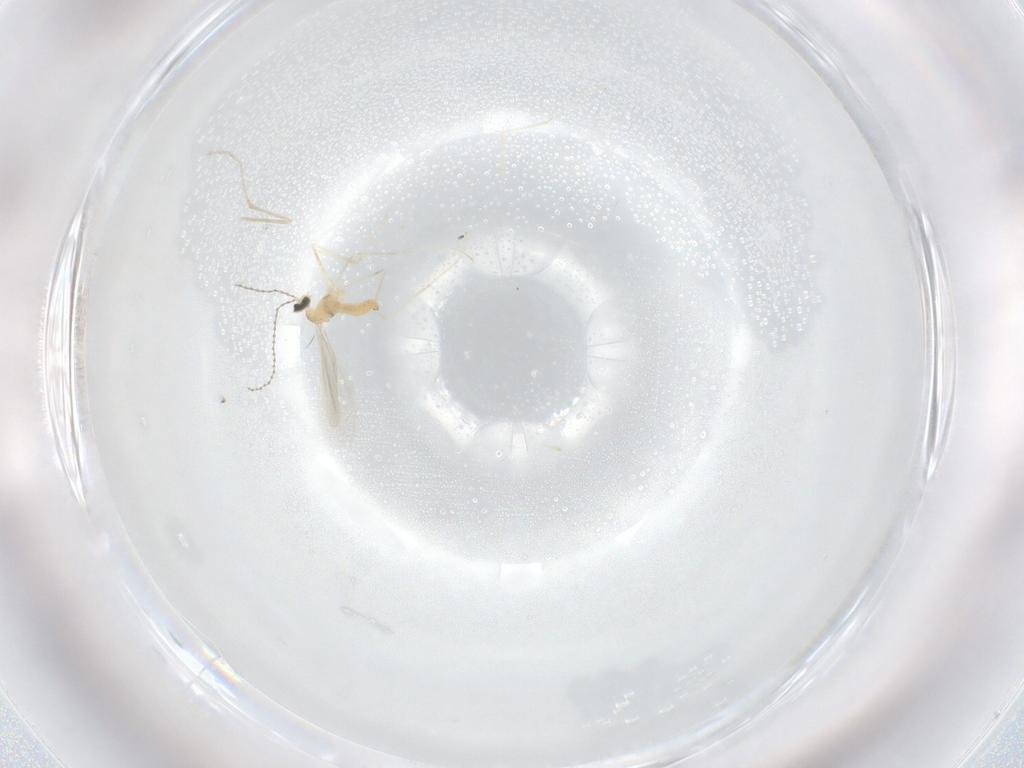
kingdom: Animalia
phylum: Arthropoda
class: Insecta
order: Diptera
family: Cecidomyiidae
